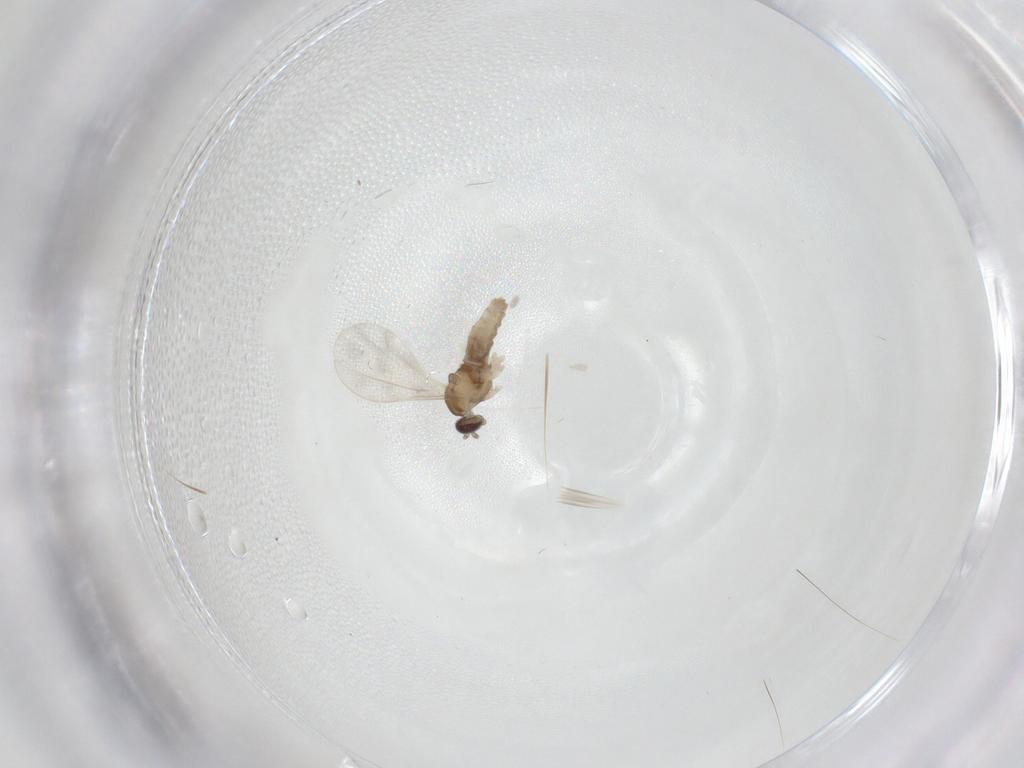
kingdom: Animalia
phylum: Arthropoda
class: Insecta
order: Diptera
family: Cecidomyiidae
